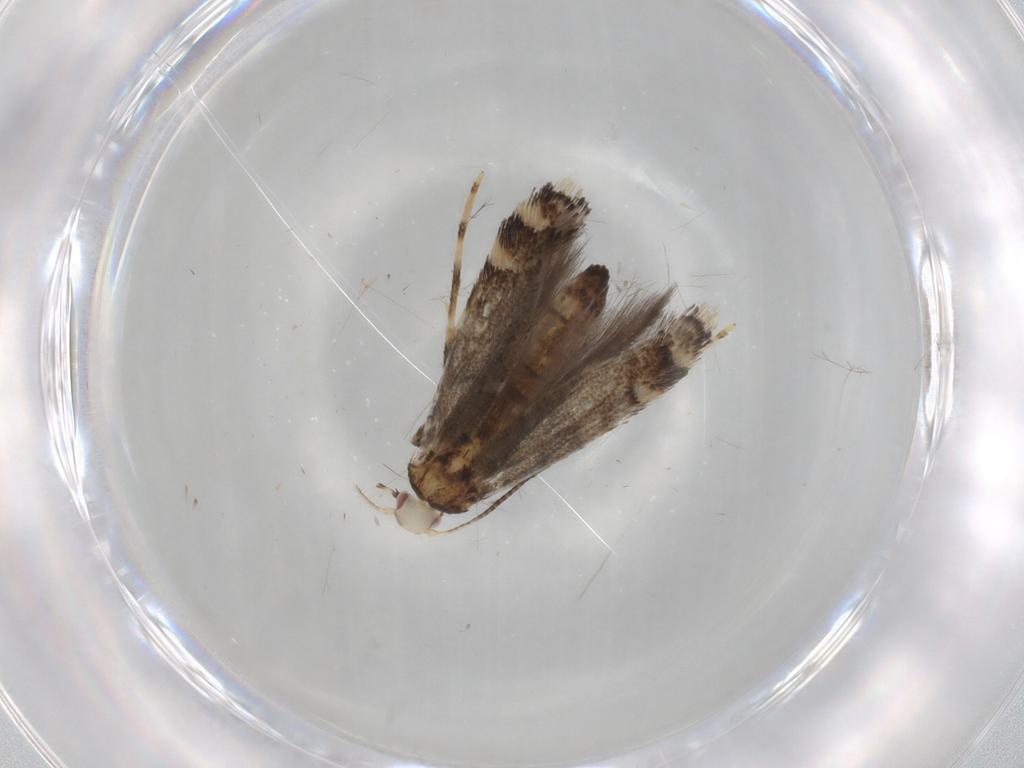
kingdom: Animalia
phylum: Arthropoda
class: Insecta
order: Lepidoptera
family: Gracillariidae
